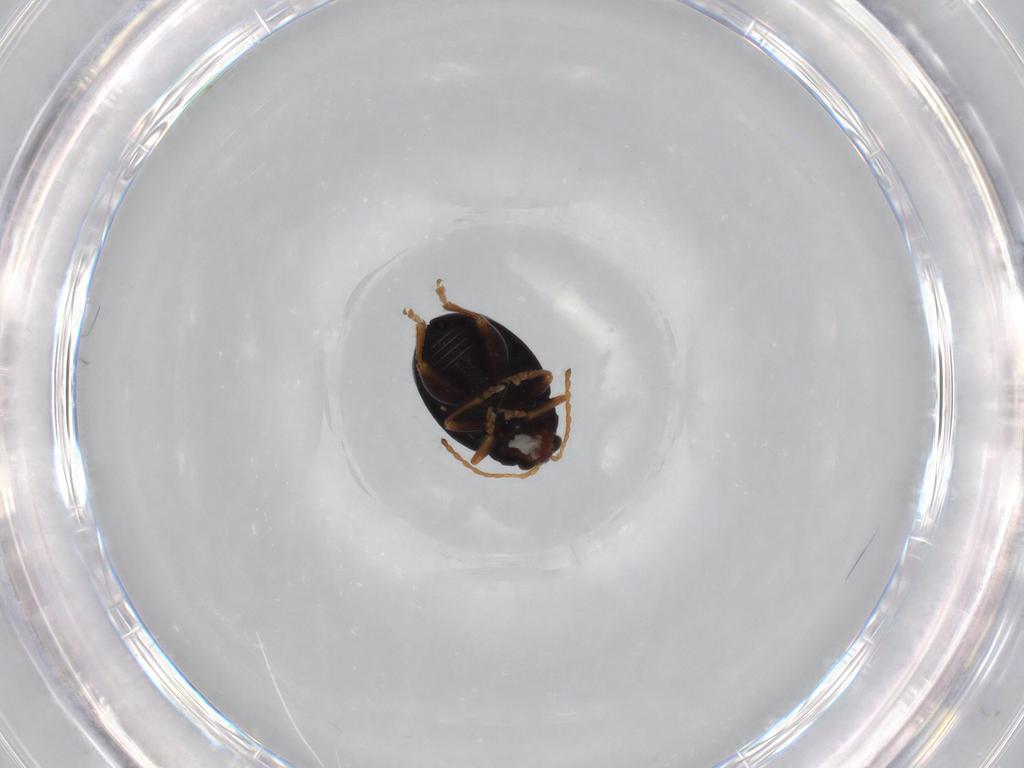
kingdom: Animalia
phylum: Arthropoda
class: Insecta
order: Coleoptera
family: Chrysomelidae
